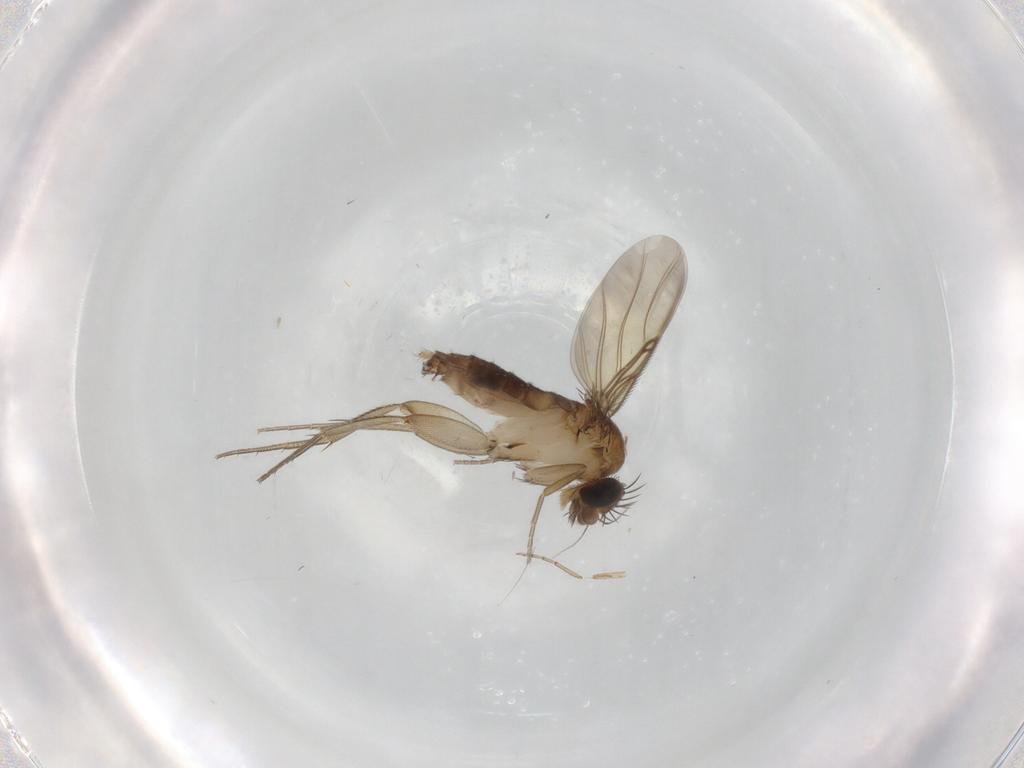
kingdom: Animalia
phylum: Arthropoda
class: Insecta
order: Diptera
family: Phoridae
